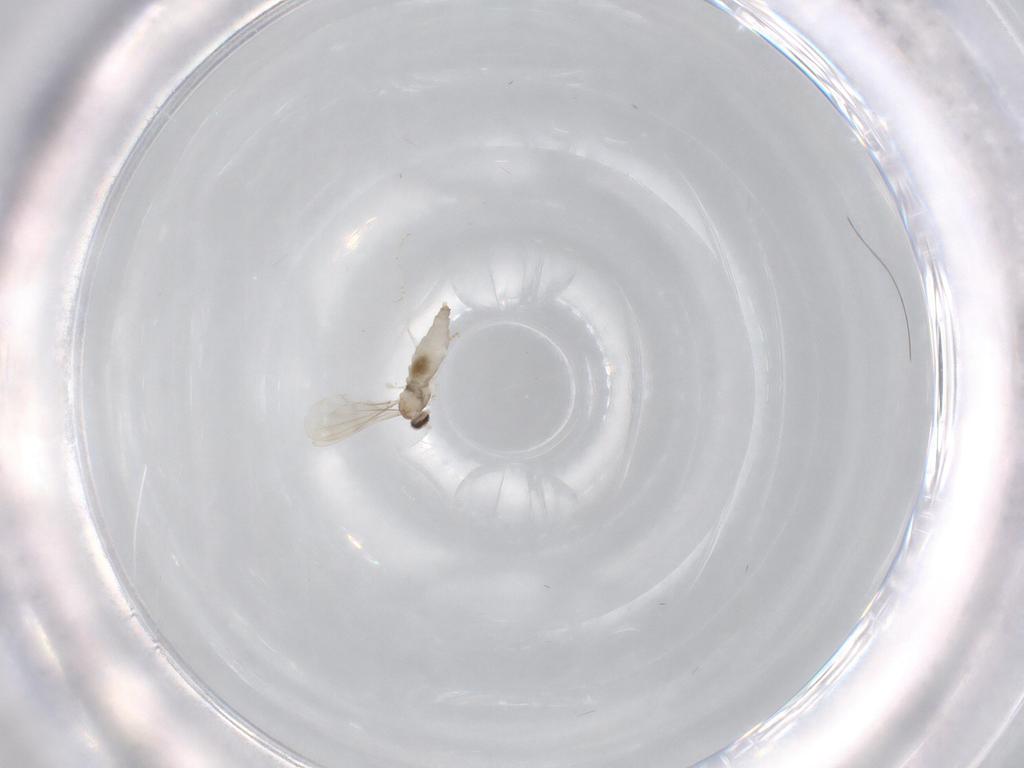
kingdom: Animalia
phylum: Arthropoda
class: Insecta
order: Diptera
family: Cecidomyiidae
